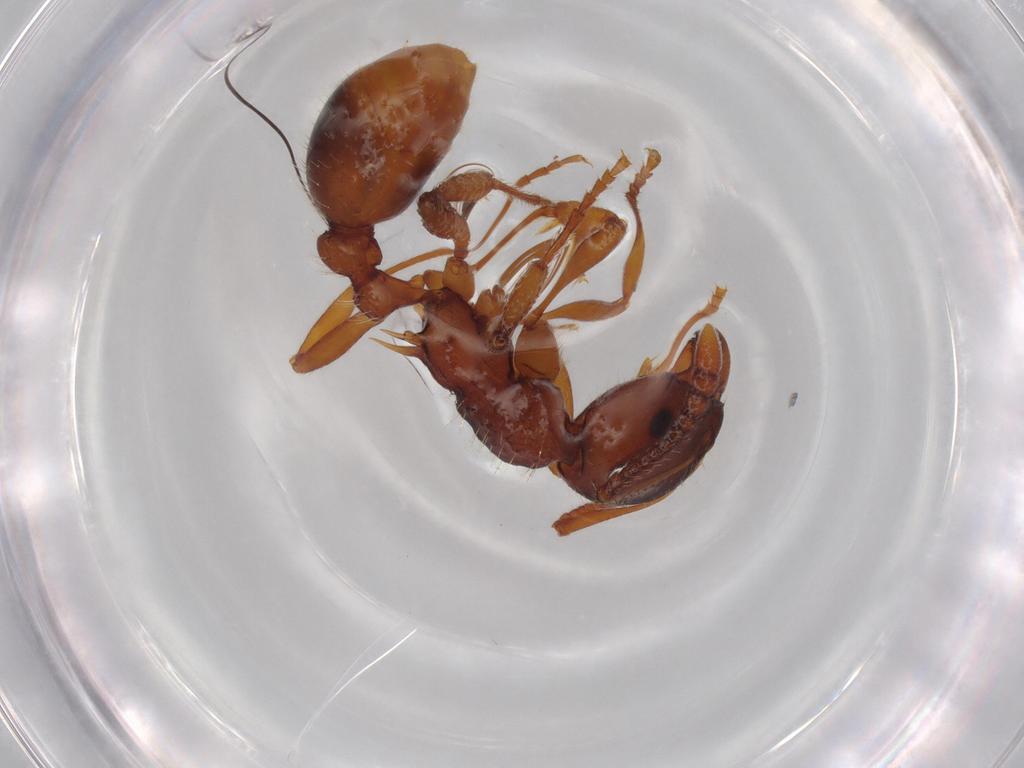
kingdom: Animalia
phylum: Arthropoda
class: Insecta
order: Hymenoptera
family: Formicidae
